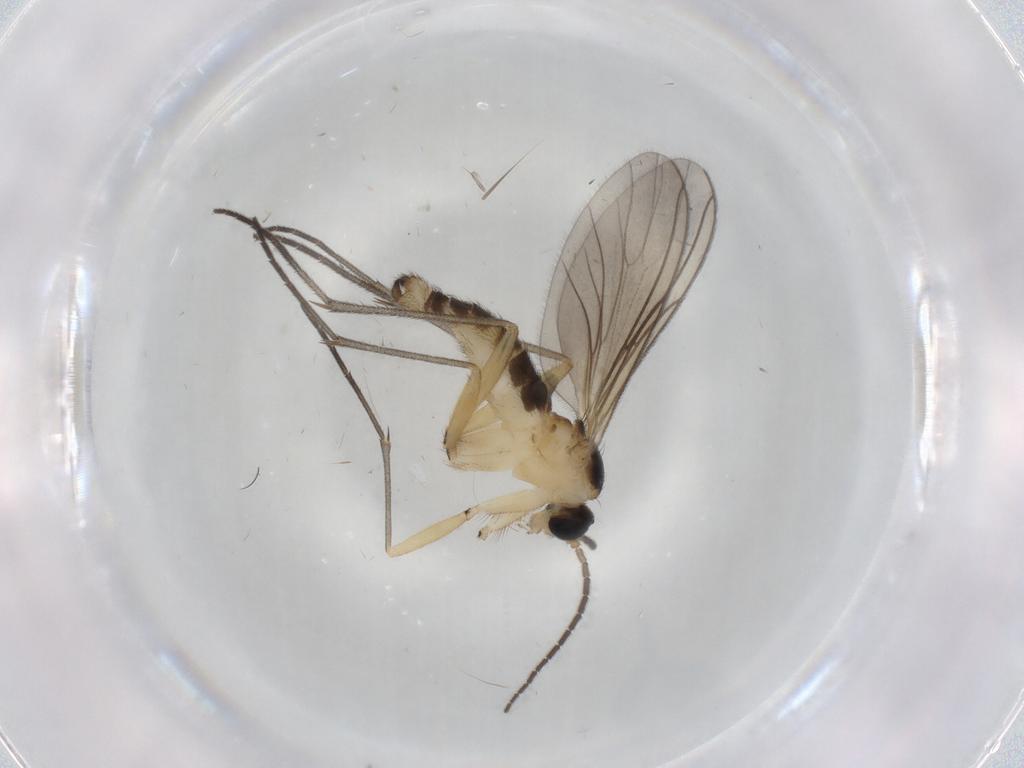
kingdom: Animalia
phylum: Arthropoda
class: Insecta
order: Diptera
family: Sciaridae
